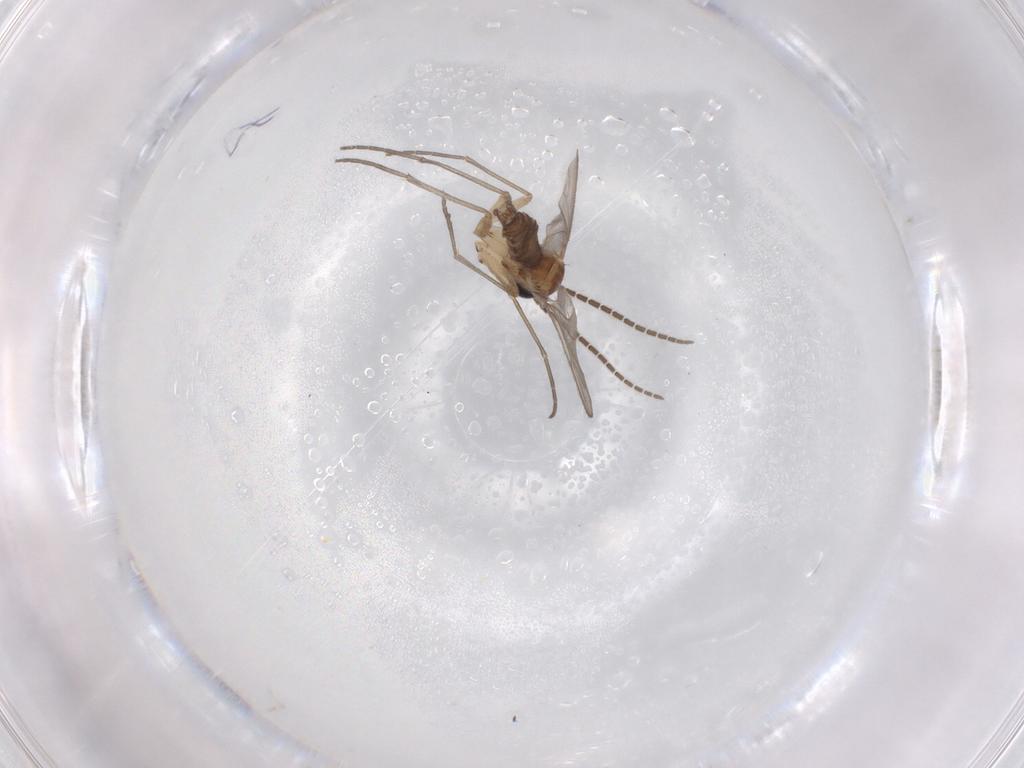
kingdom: Animalia
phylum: Arthropoda
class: Insecta
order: Diptera
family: Sciaridae
